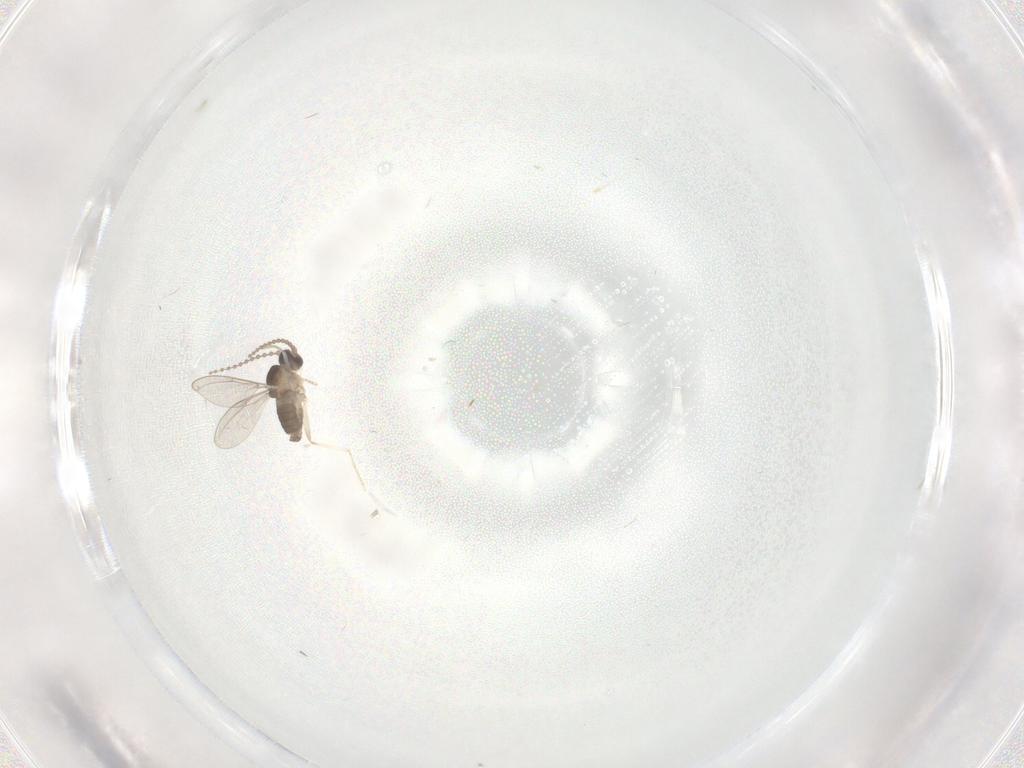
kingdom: Animalia
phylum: Arthropoda
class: Insecta
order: Diptera
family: Cecidomyiidae
